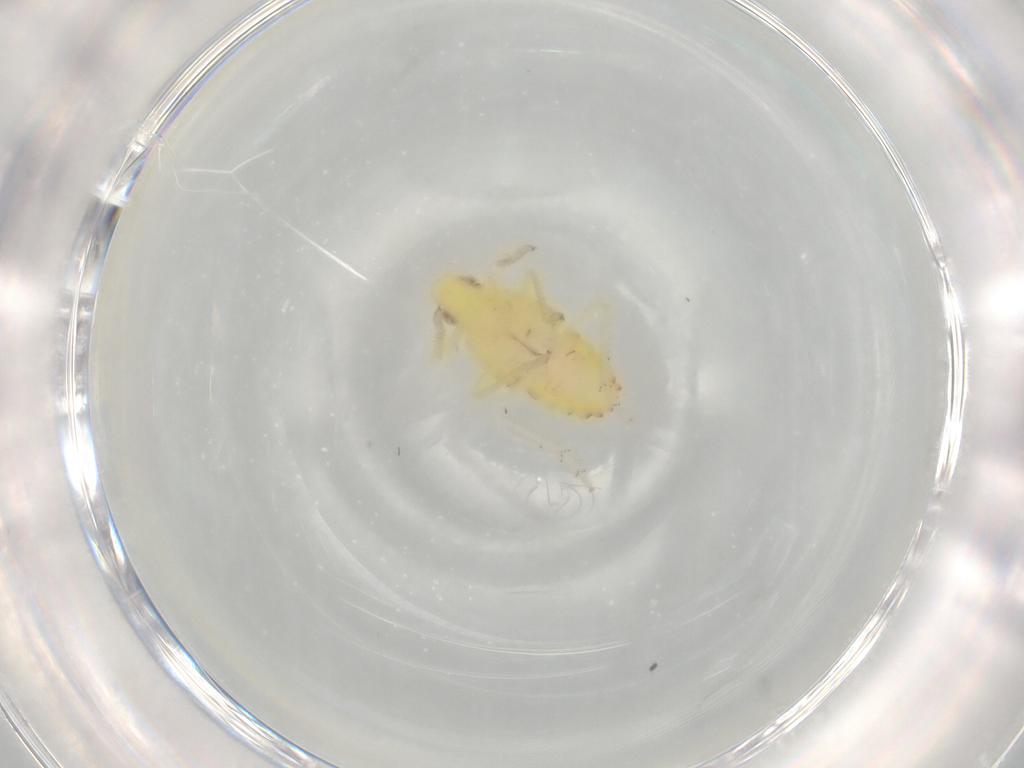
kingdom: Animalia
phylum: Arthropoda
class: Insecta
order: Hemiptera
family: Tropiduchidae
